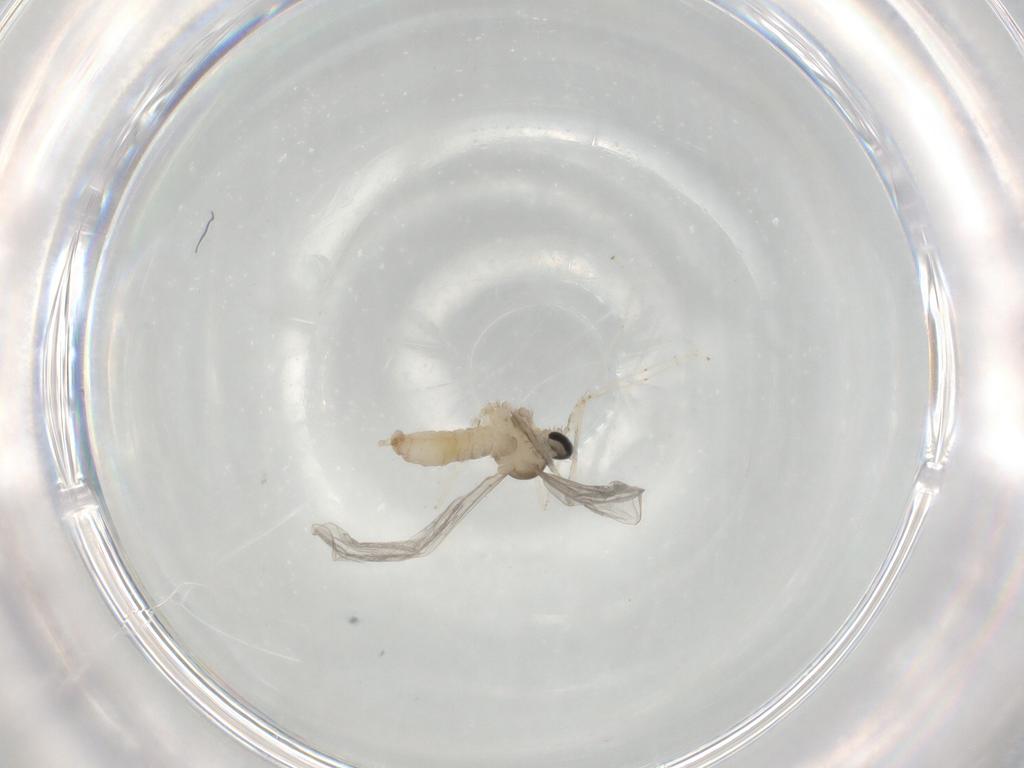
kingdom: Animalia
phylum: Arthropoda
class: Insecta
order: Diptera
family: Cecidomyiidae
